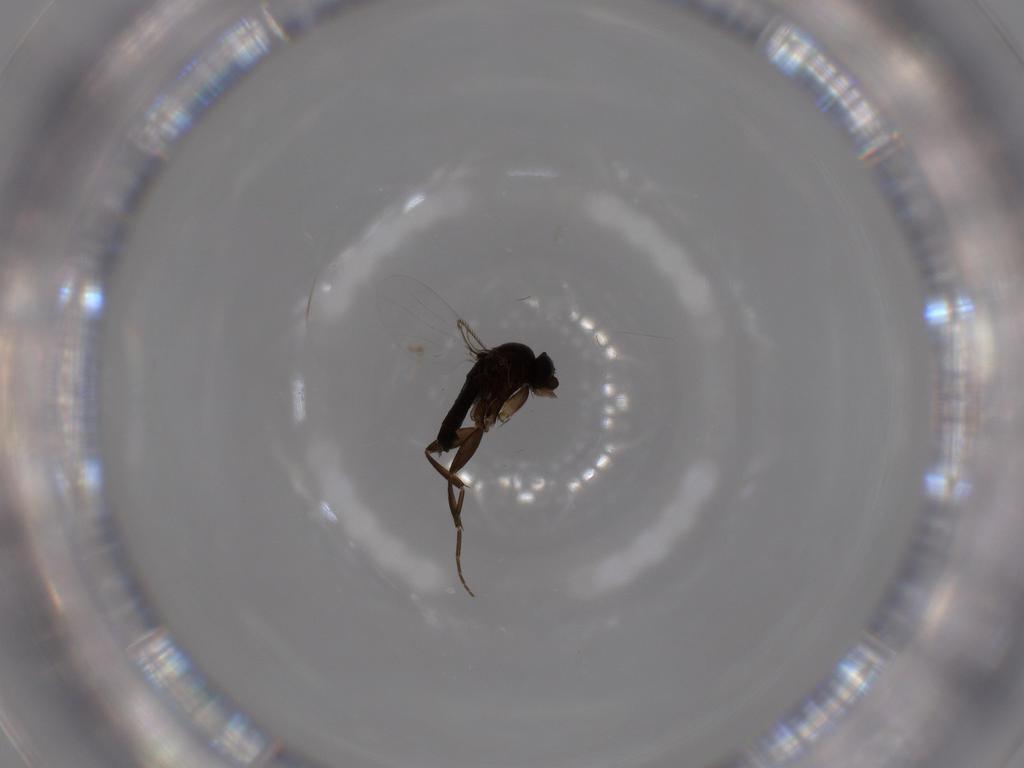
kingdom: Animalia
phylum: Arthropoda
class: Insecta
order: Diptera
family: Phoridae
